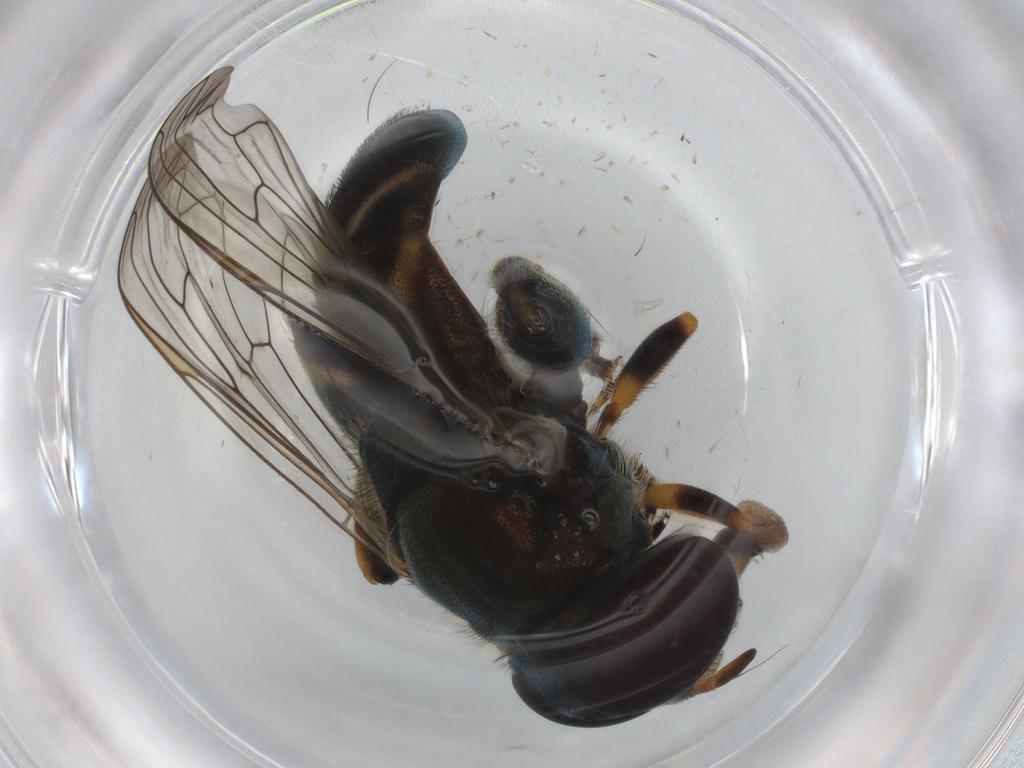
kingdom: Animalia
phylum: Arthropoda
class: Insecta
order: Diptera
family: Syrphidae
